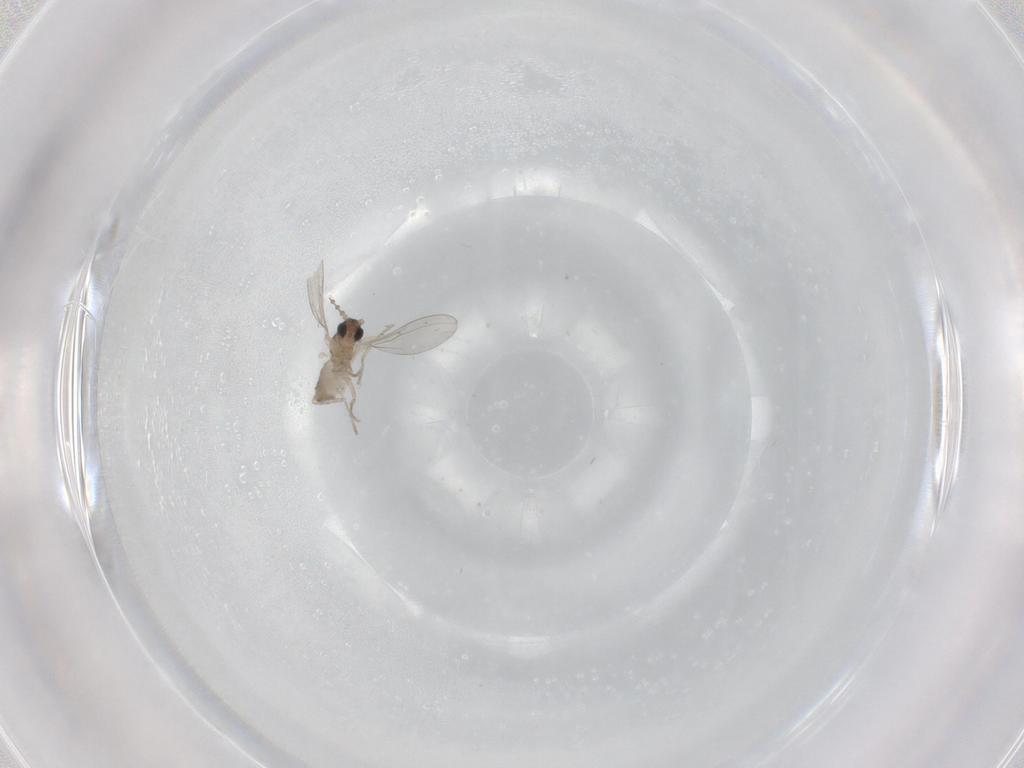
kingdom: Animalia
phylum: Arthropoda
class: Insecta
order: Diptera
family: Cecidomyiidae
